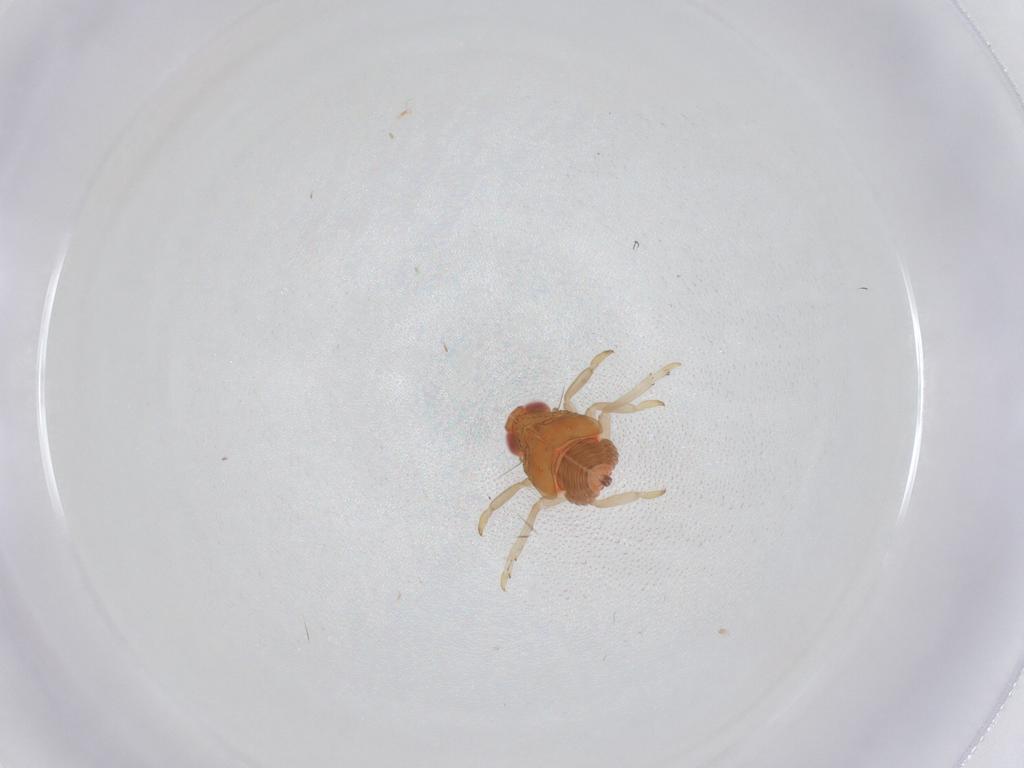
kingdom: Animalia
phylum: Arthropoda
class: Insecta
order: Hemiptera
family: Fulgoroidea_incertae_sedis
